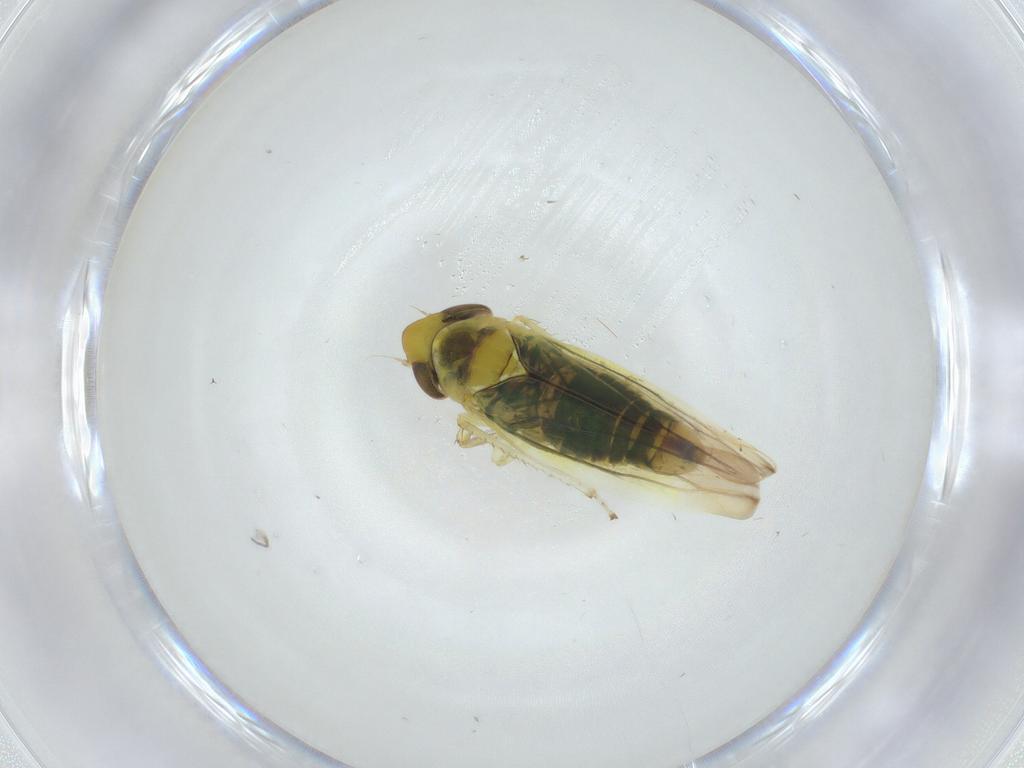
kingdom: Animalia
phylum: Arthropoda
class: Insecta
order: Hemiptera
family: Cicadellidae
